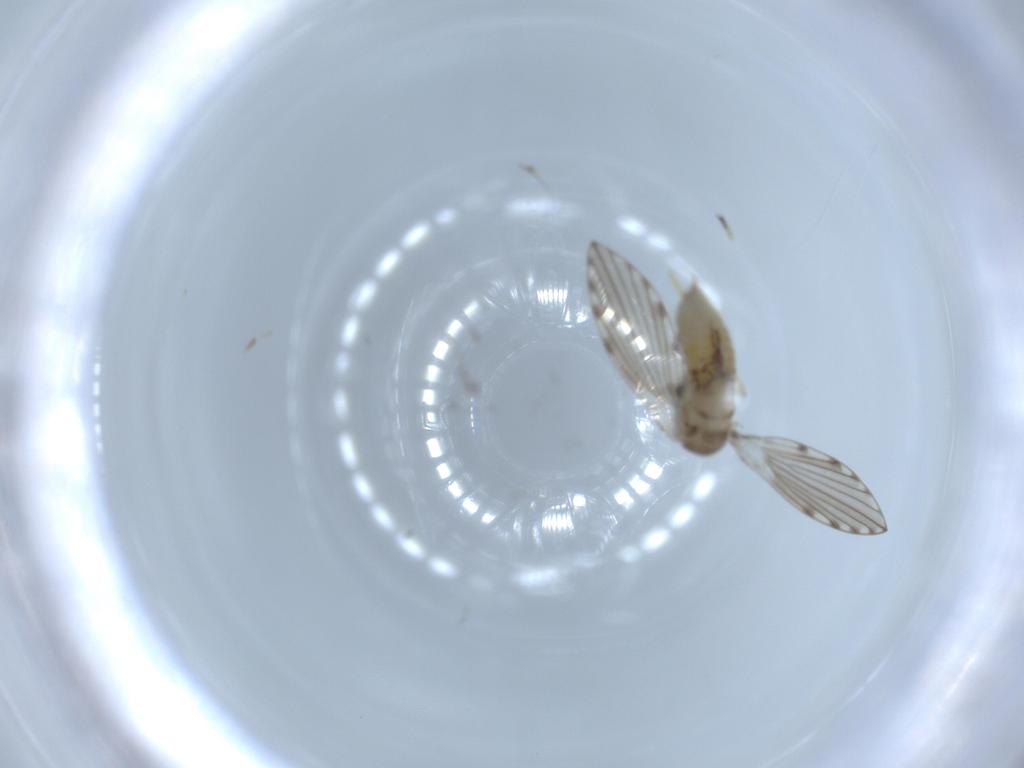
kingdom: Animalia
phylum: Arthropoda
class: Insecta
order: Diptera
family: Psychodidae
